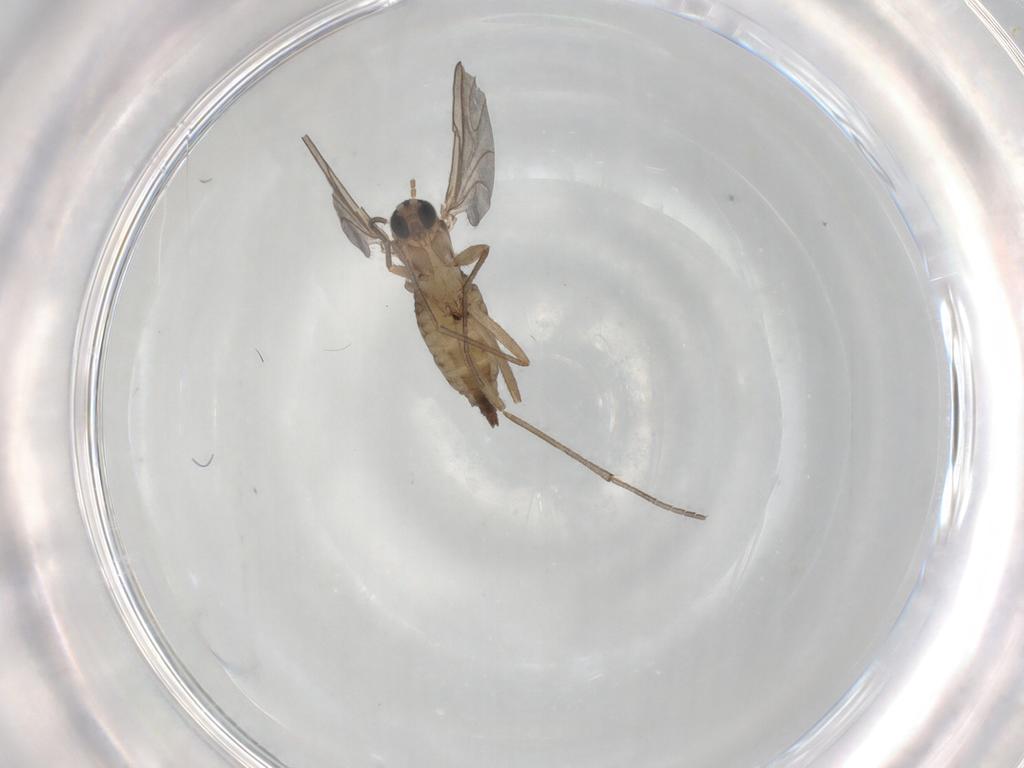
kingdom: Animalia
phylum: Arthropoda
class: Insecta
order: Diptera
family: Sciaridae
